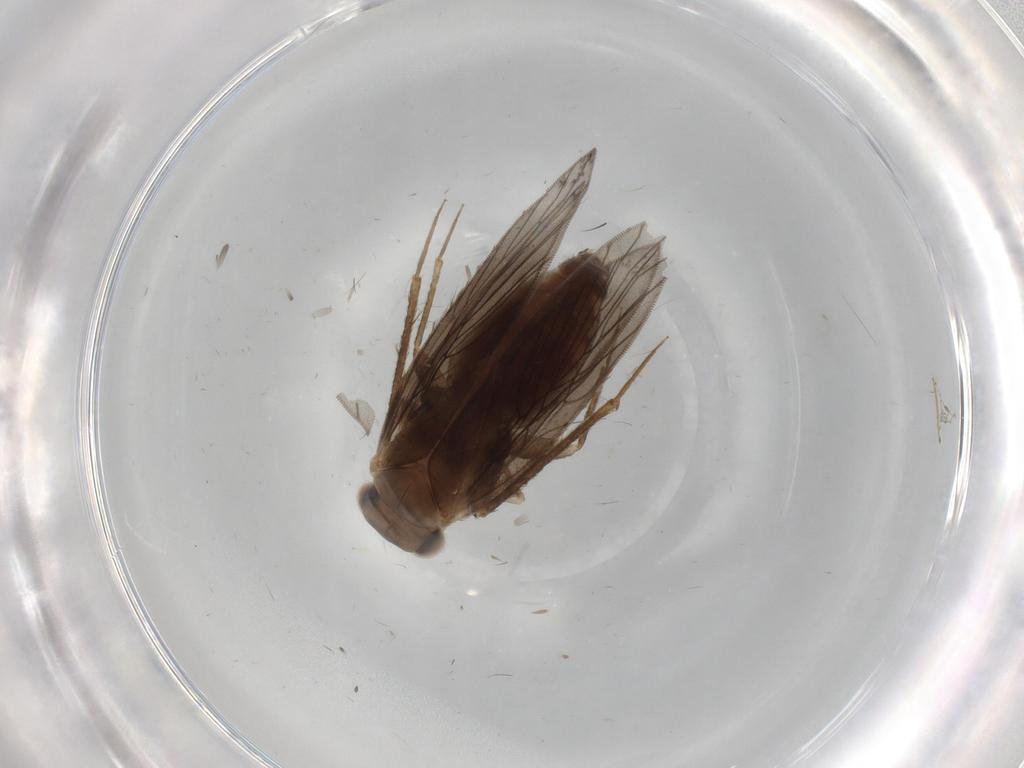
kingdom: Animalia
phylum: Arthropoda
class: Insecta
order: Psocodea
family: Lepidopsocidae
